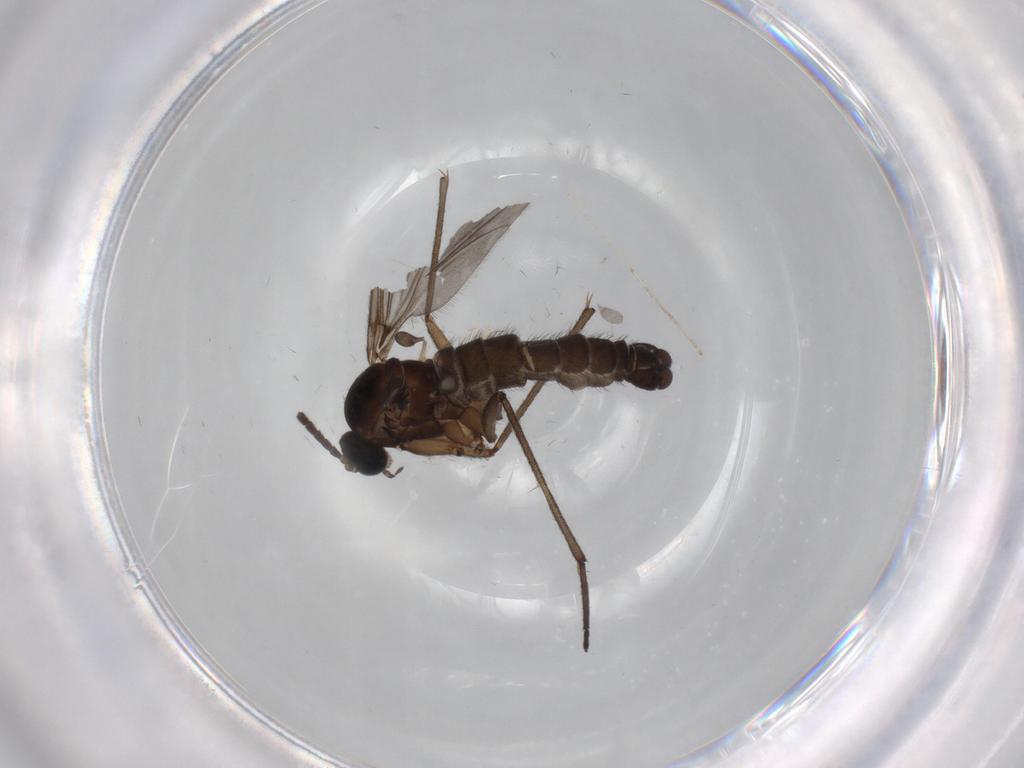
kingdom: Animalia
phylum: Arthropoda
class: Insecta
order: Diptera
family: Sciaridae
